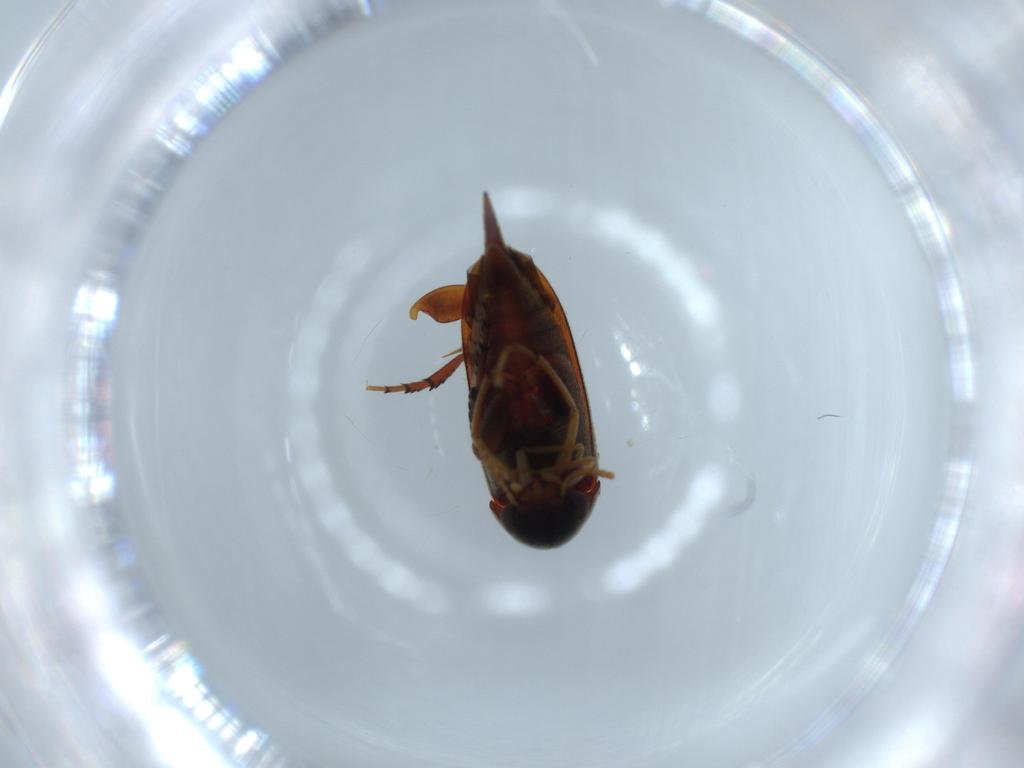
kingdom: Animalia
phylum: Arthropoda
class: Insecta
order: Coleoptera
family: Mordellidae
